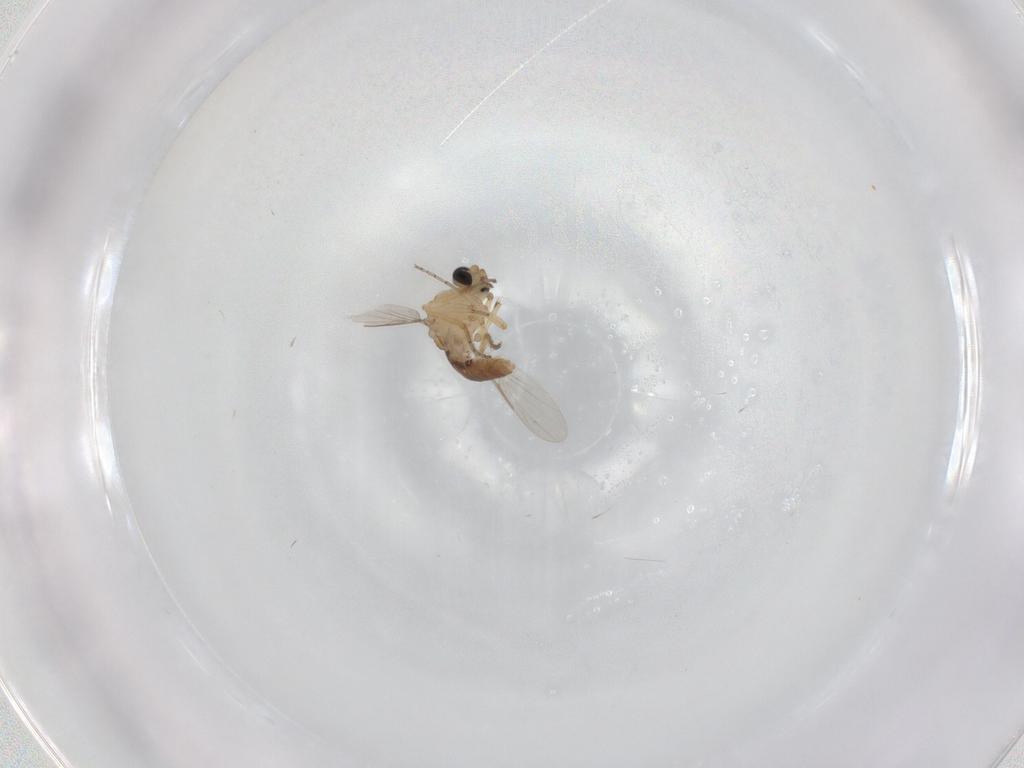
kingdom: Animalia
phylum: Arthropoda
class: Insecta
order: Diptera
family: Ceratopogonidae
